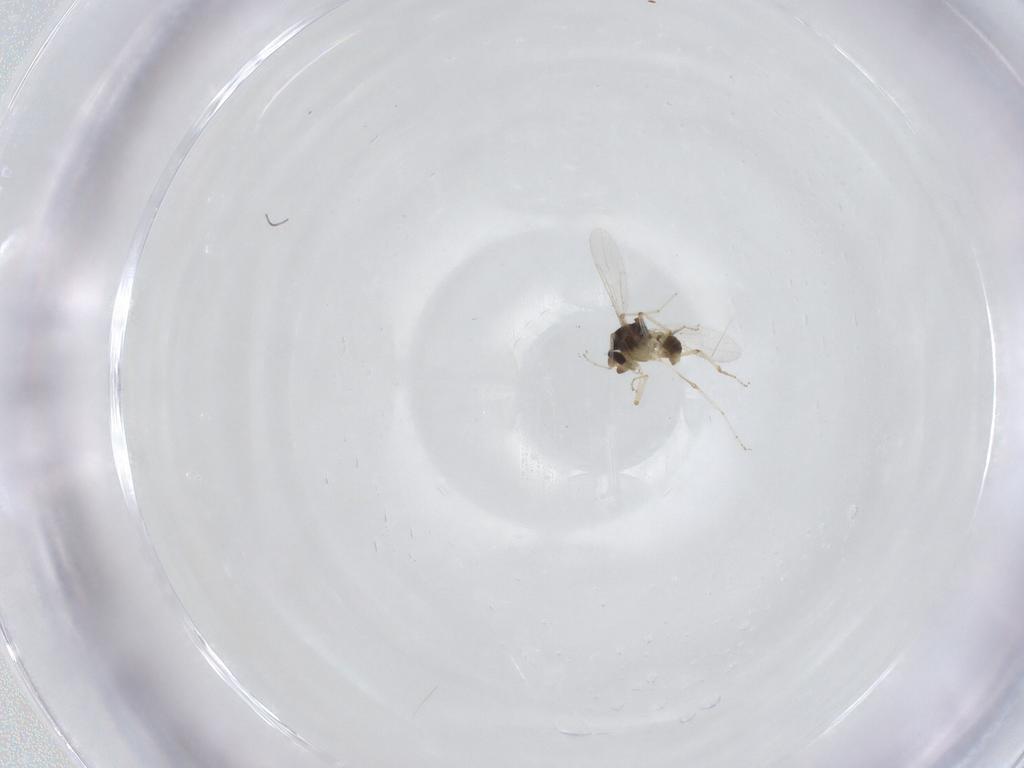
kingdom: Animalia
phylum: Arthropoda
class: Insecta
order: Diptera
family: Ceratopogonidae
